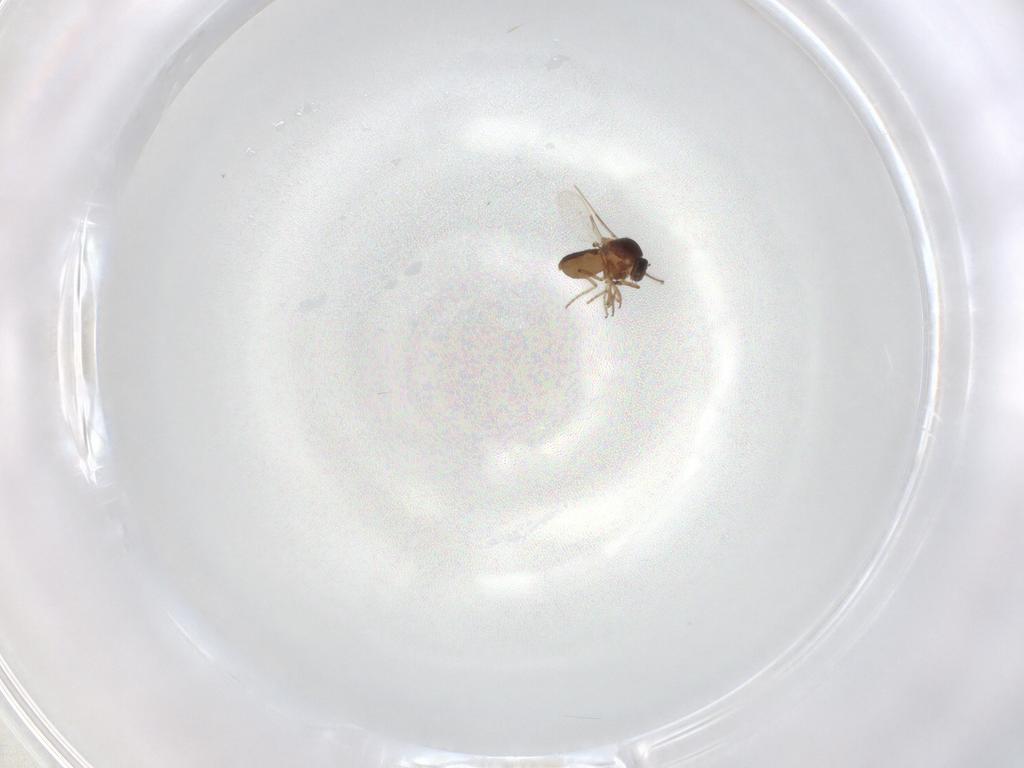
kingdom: Animalia
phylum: Arthropoda
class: Insecta
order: Diptera
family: Ceratopogonidae
